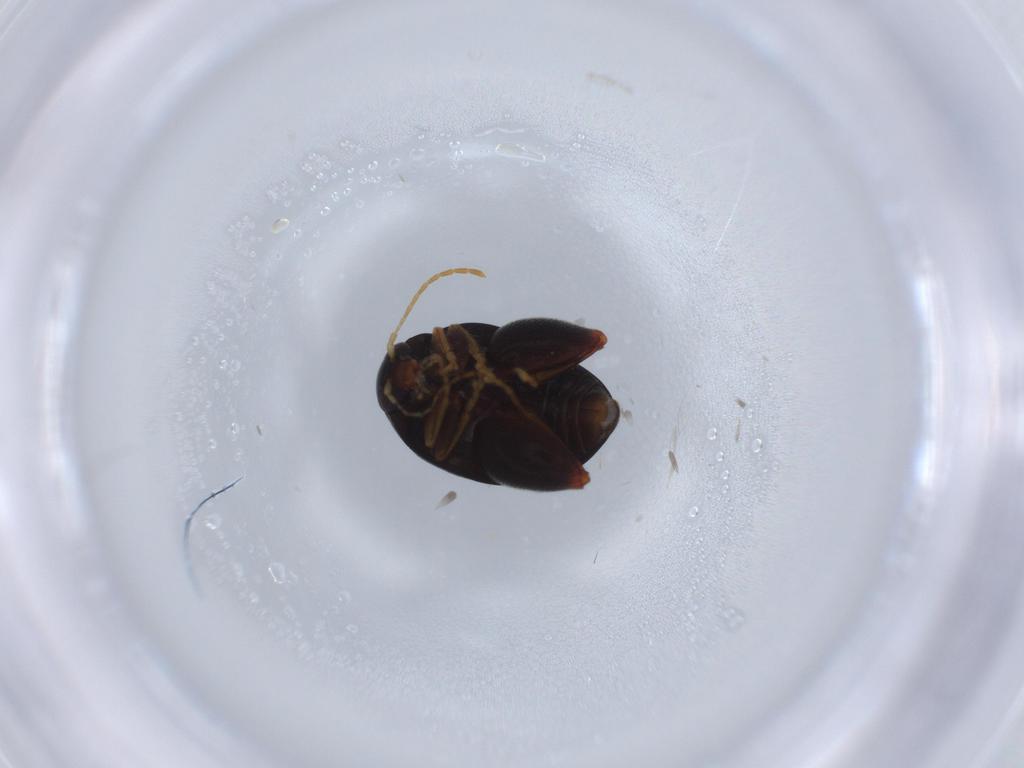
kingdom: Animalia
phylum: Arthropoda
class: Insecta
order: Coleoptera
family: Chrysomelidae
